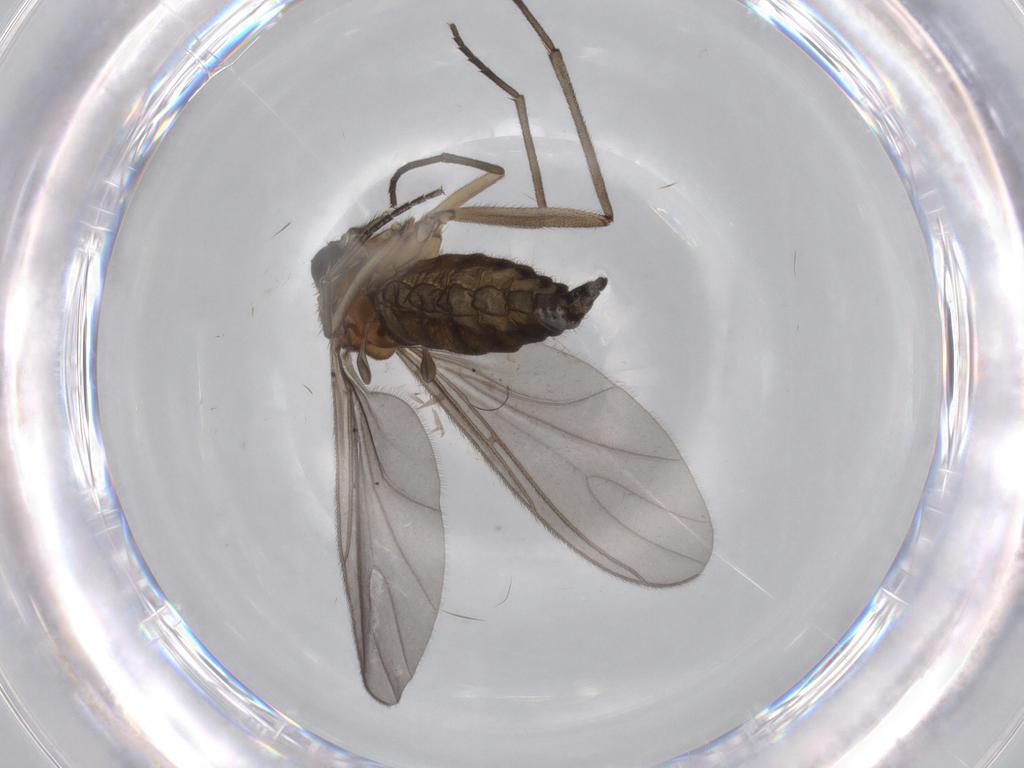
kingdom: Animalia
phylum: Arthropoda
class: Insecta
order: Diptera
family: Sciaridae
